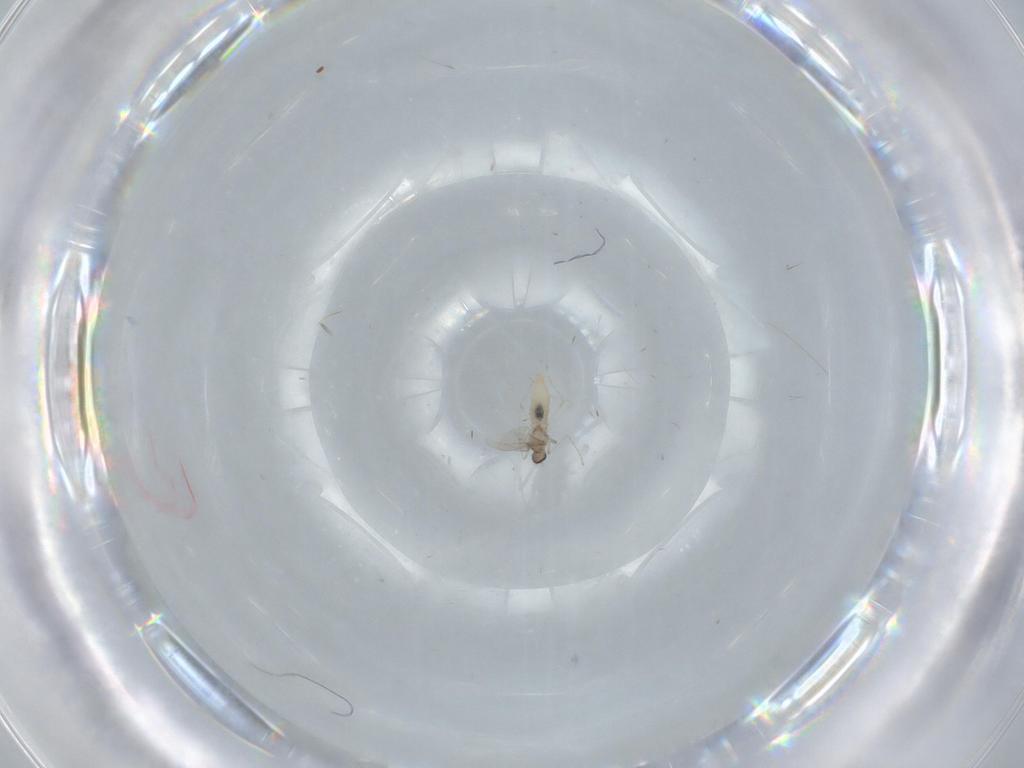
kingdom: Animalia
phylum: Arthropoda
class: Insecta
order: Diptera
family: Cecidomyiidae
